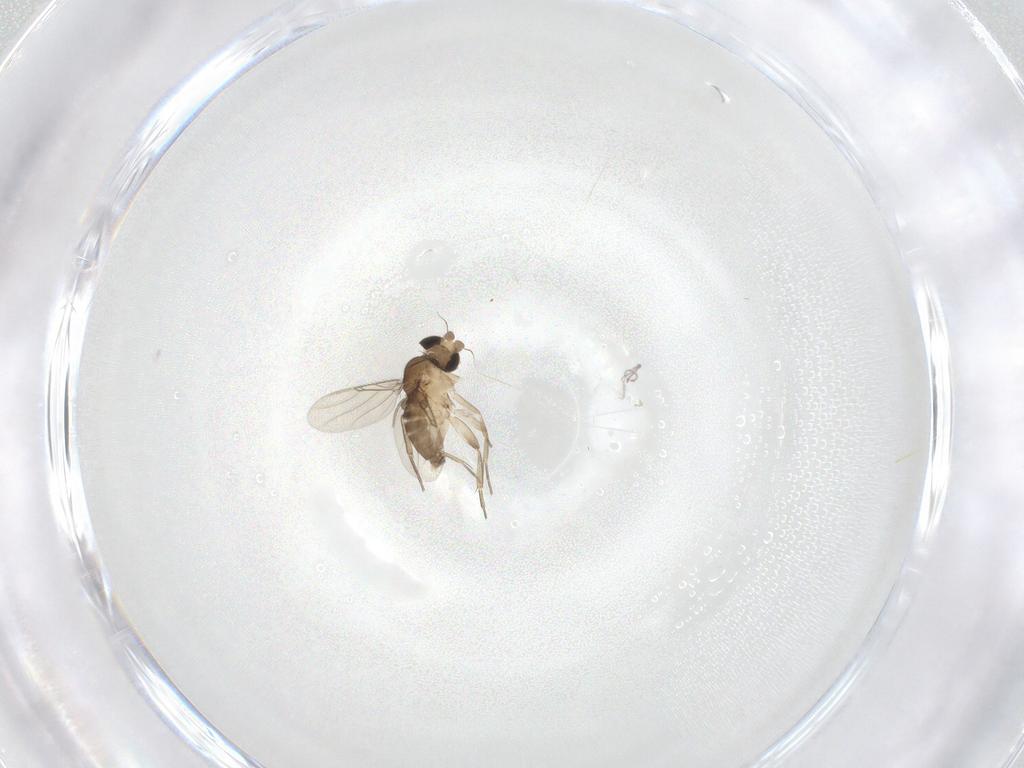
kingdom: Animalia
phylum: Arthropoda
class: Insecta
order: Diptera
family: Phoridae
